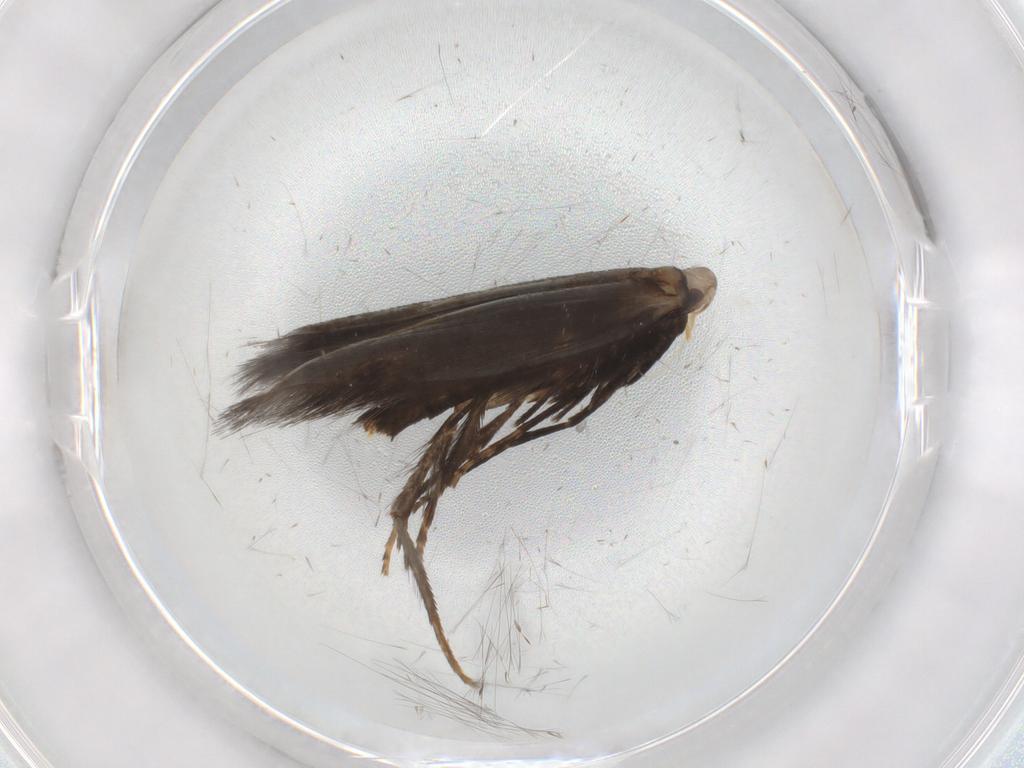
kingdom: Animalia
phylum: Arthropoda
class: Insecta
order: Lepidoptera
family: Tischeriidae
